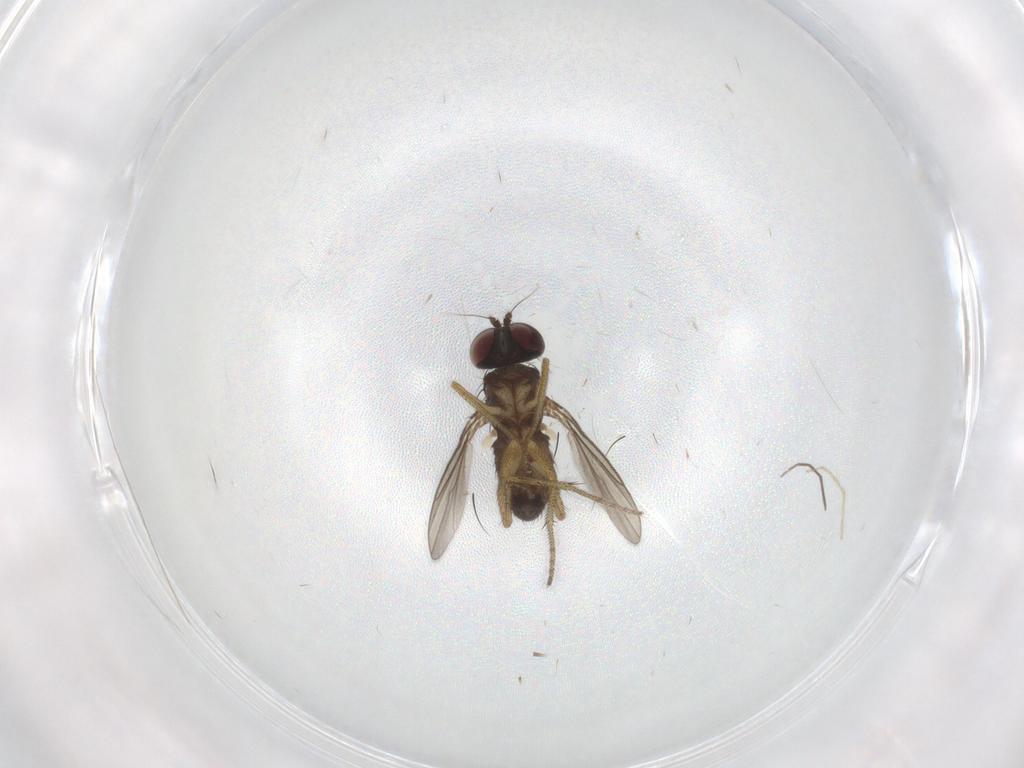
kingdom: Animalia
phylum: Arthropoda
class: Insecta
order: Diptera
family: Chironomidae
